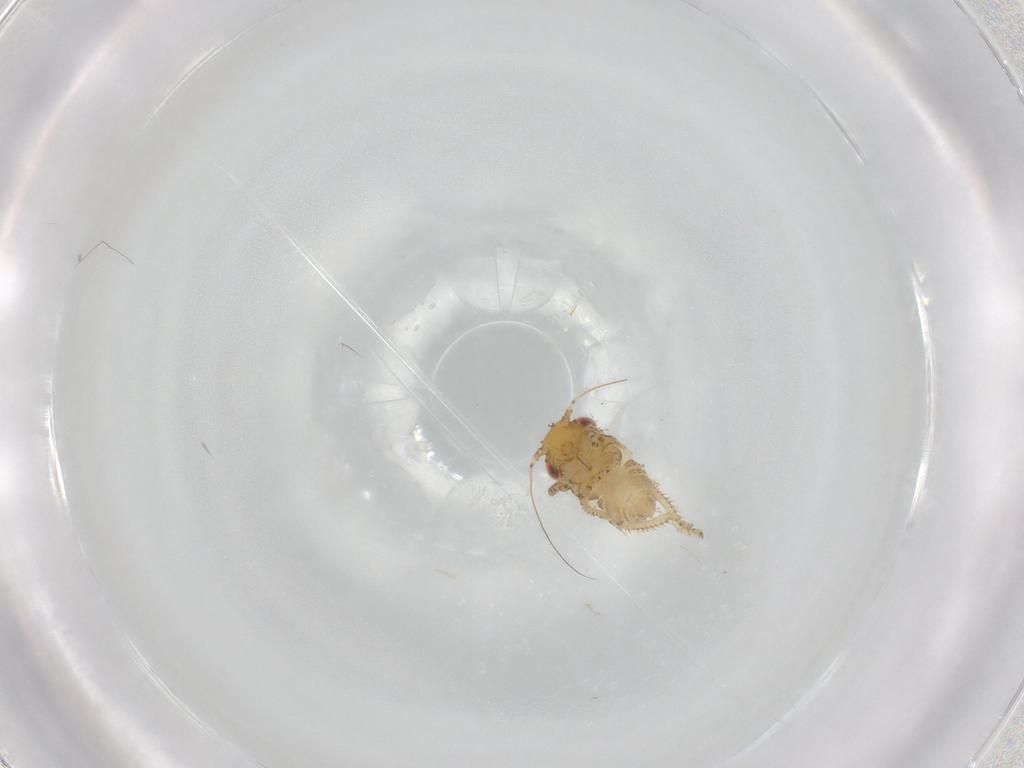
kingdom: Animalia
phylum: Arthropoda
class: Insecta
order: Hemiptera
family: Cicadellidae
